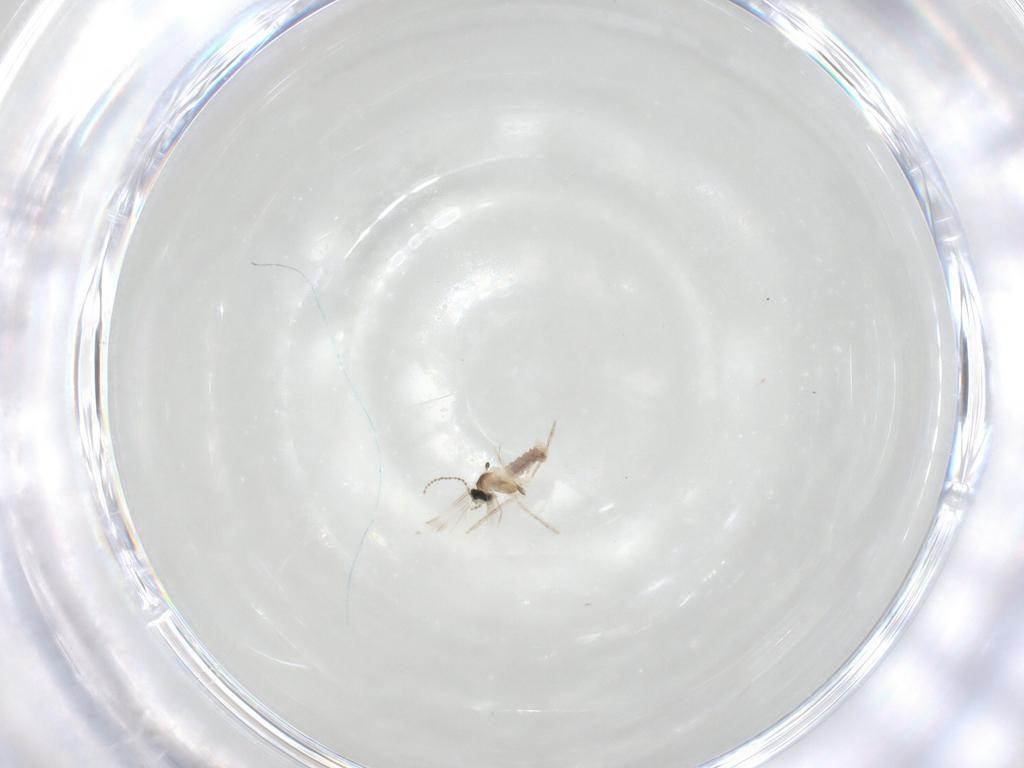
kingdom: Animalia
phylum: Arthropoda
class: Insecta
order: Diptera
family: Cecidomyiidae
